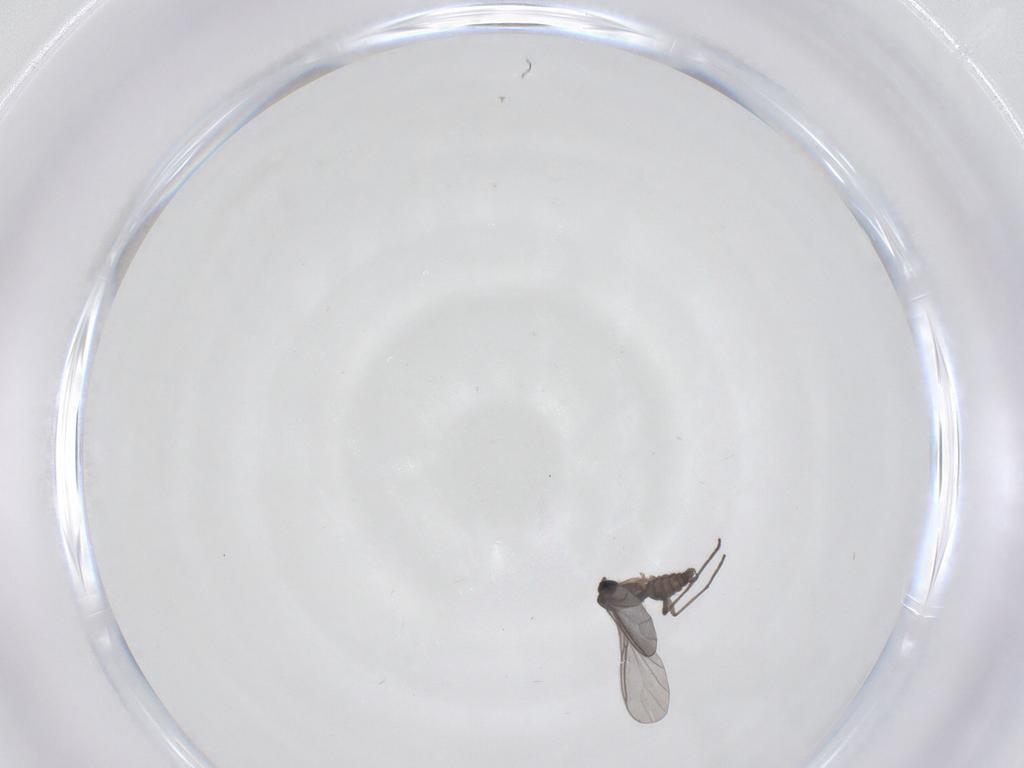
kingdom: Animalia
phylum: Arthropoda
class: Insecta
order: Diptera
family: Sciaridae
